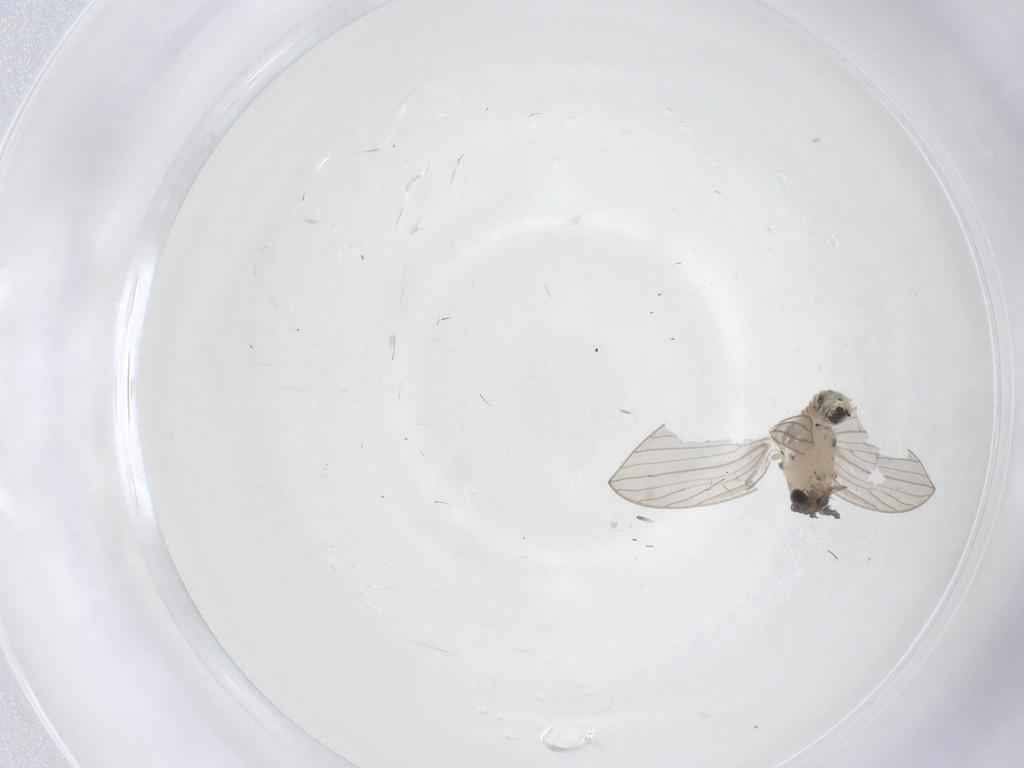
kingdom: Animalia
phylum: Arthropoda
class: Insecta
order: Diptera
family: Psychodidae
